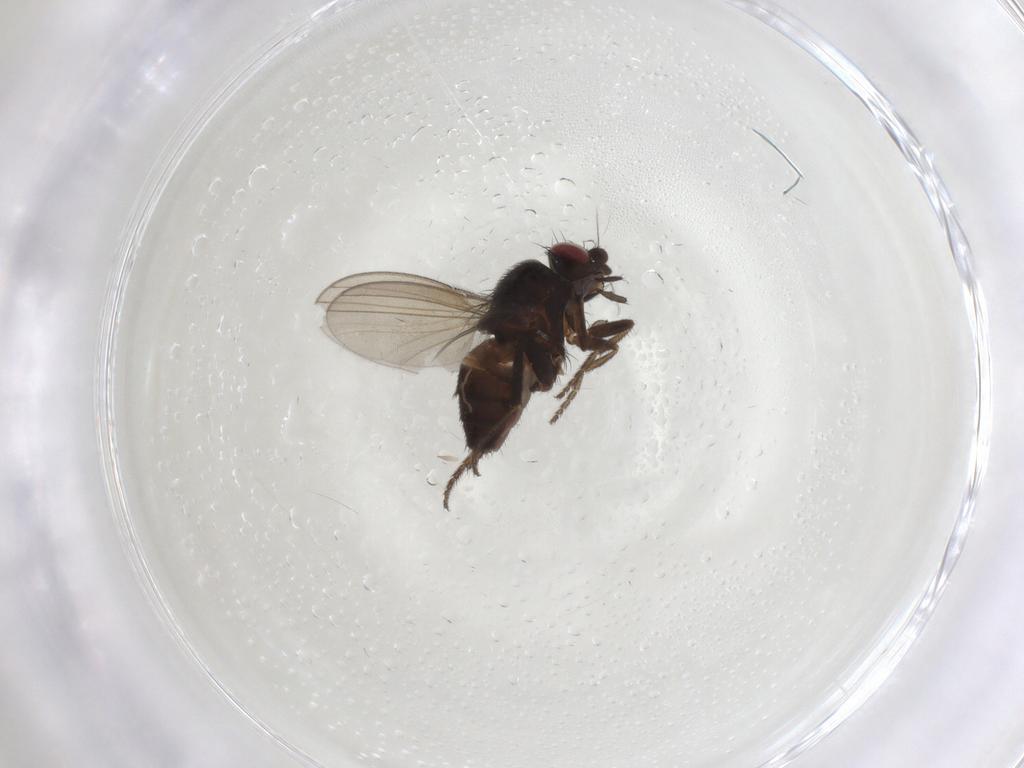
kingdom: Animalia
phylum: Arthropoda
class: Insecta
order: Diptera
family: Milichiidae
